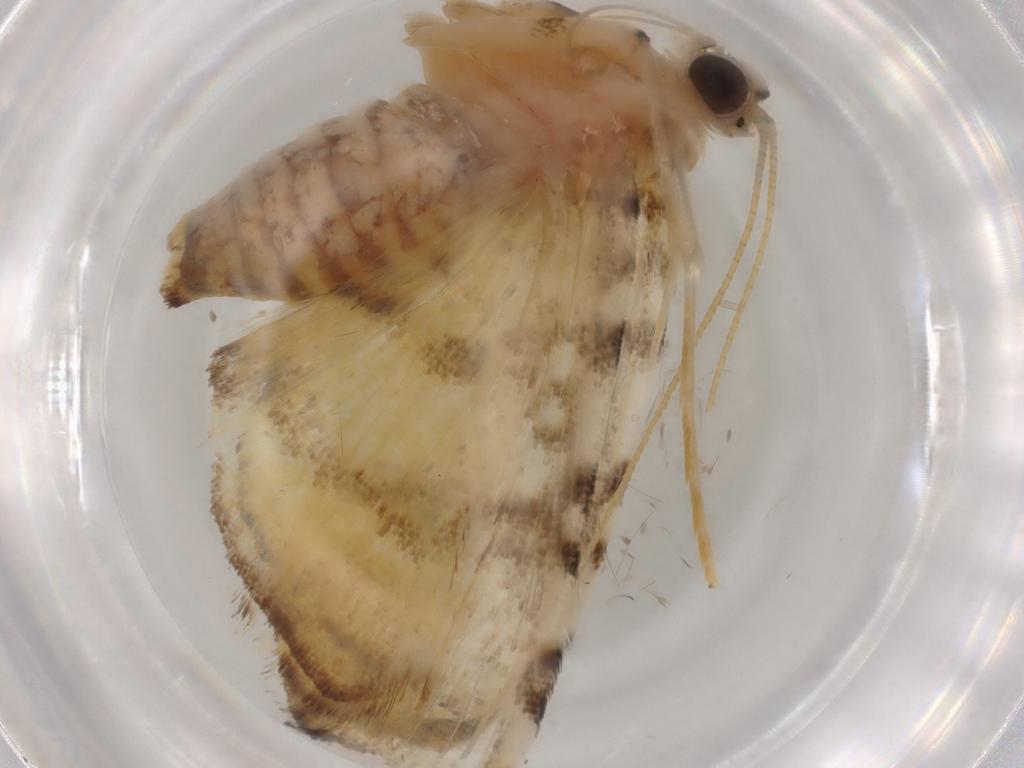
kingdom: Animalia
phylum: Arthropoda
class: Insecta
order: Lepidoptera
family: Crambidae
